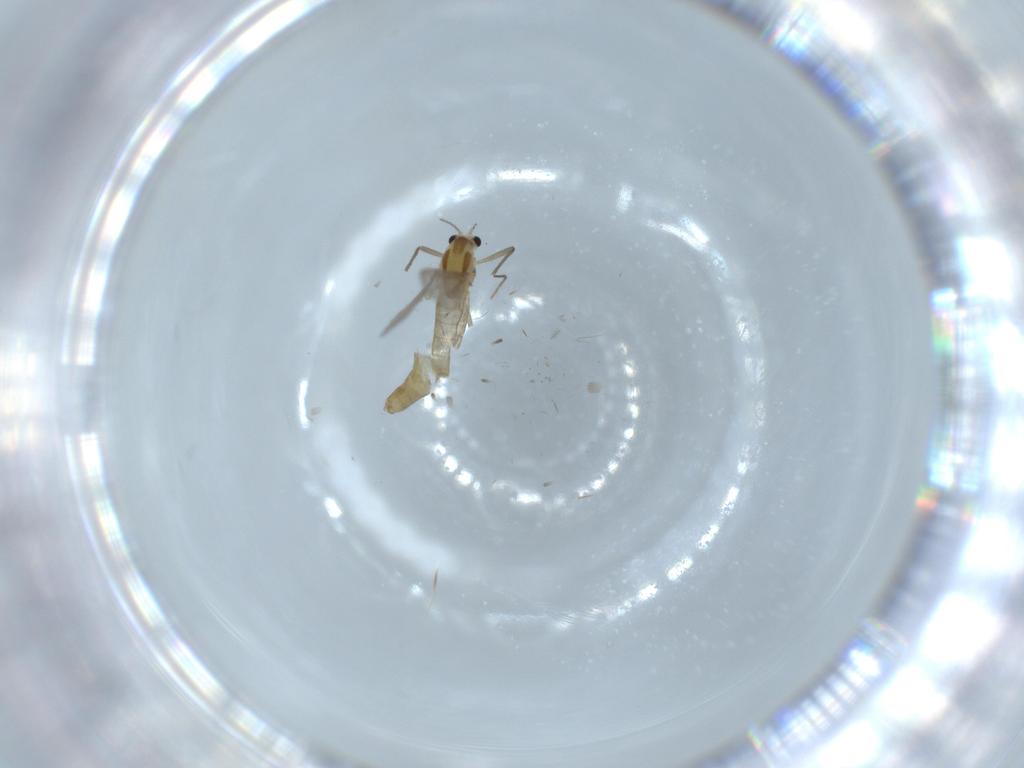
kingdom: Animalia
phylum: Arthropoda
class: Insecta
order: Diptera
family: Chironomidae
